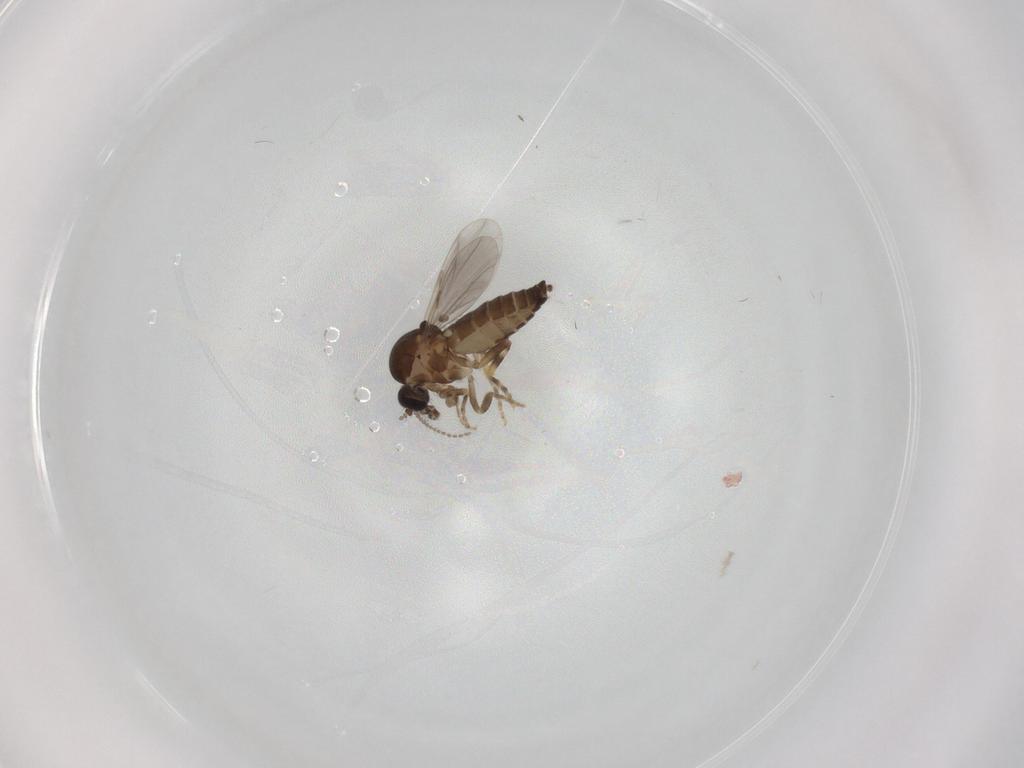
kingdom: Animalia
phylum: Arthropoda
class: Insecta
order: Diptera
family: Ceratopogonidae
